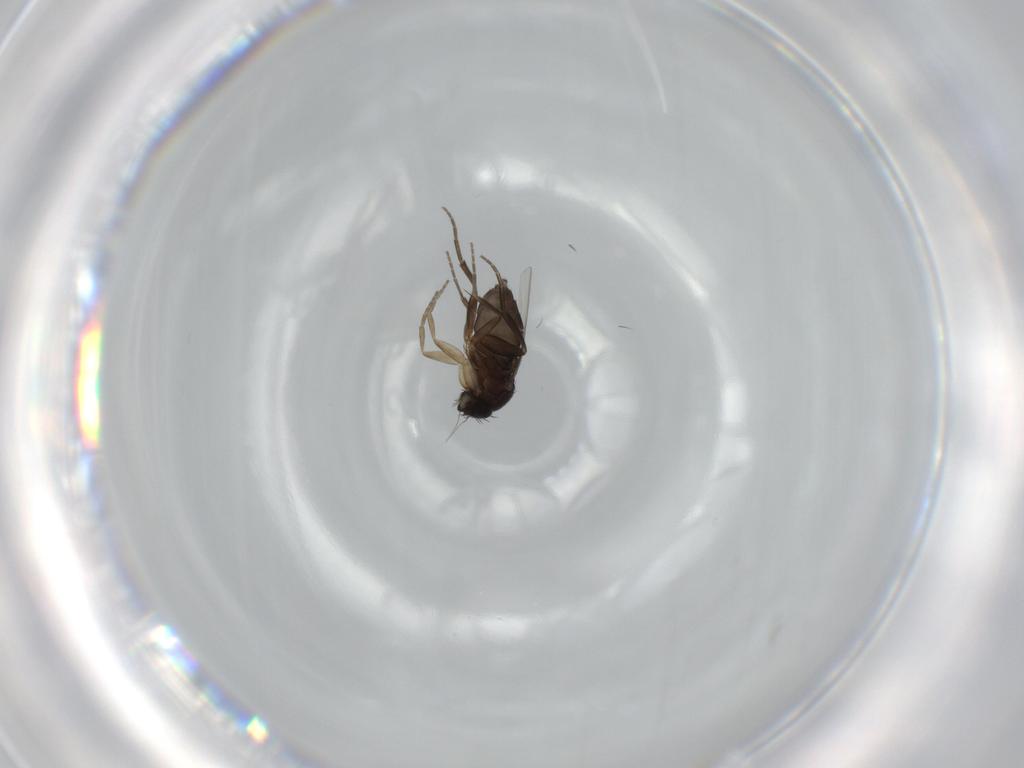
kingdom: Animalia
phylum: Arthropoda
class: Insecta
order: Diptera
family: Phoridae
